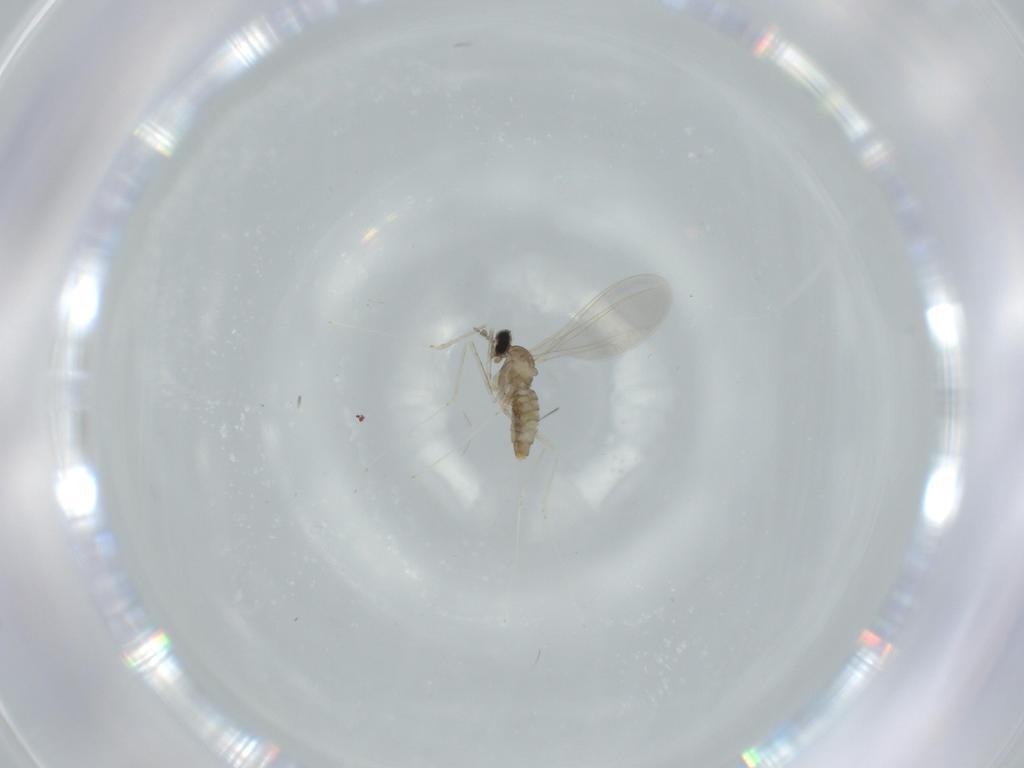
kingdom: Animalia
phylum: Arthropoda
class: Insecta
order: Diptera
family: Cecidomyiidae
